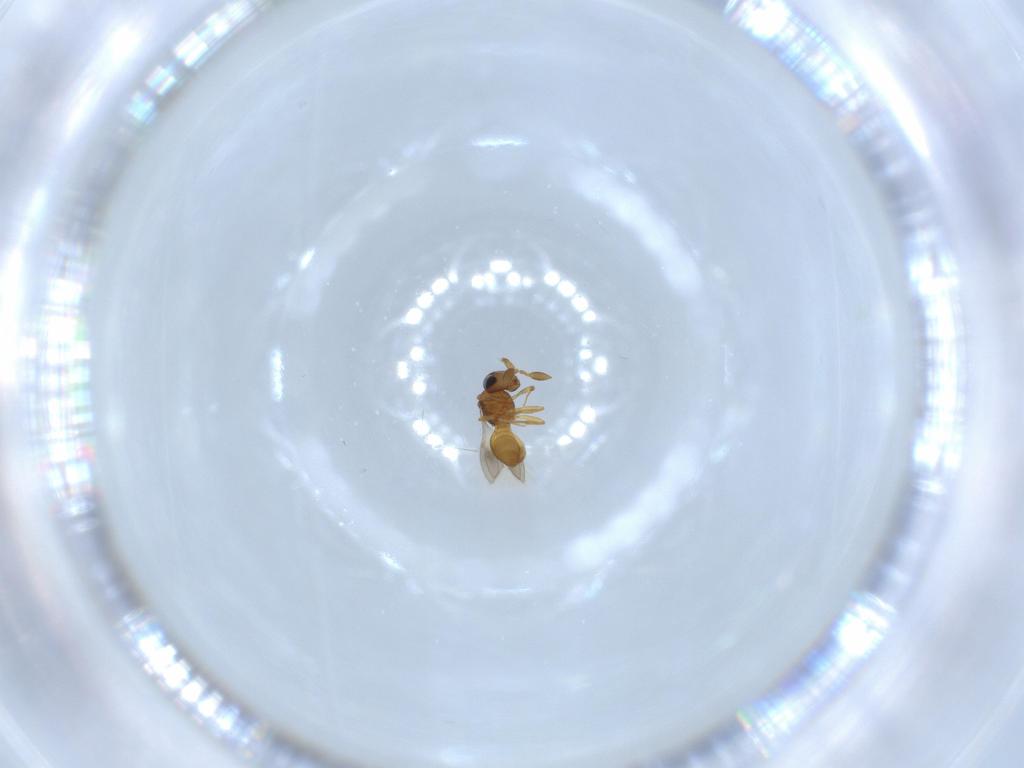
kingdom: Animalia
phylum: Arthropoda
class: Insecta
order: Hymenoptera
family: Scelionidae
